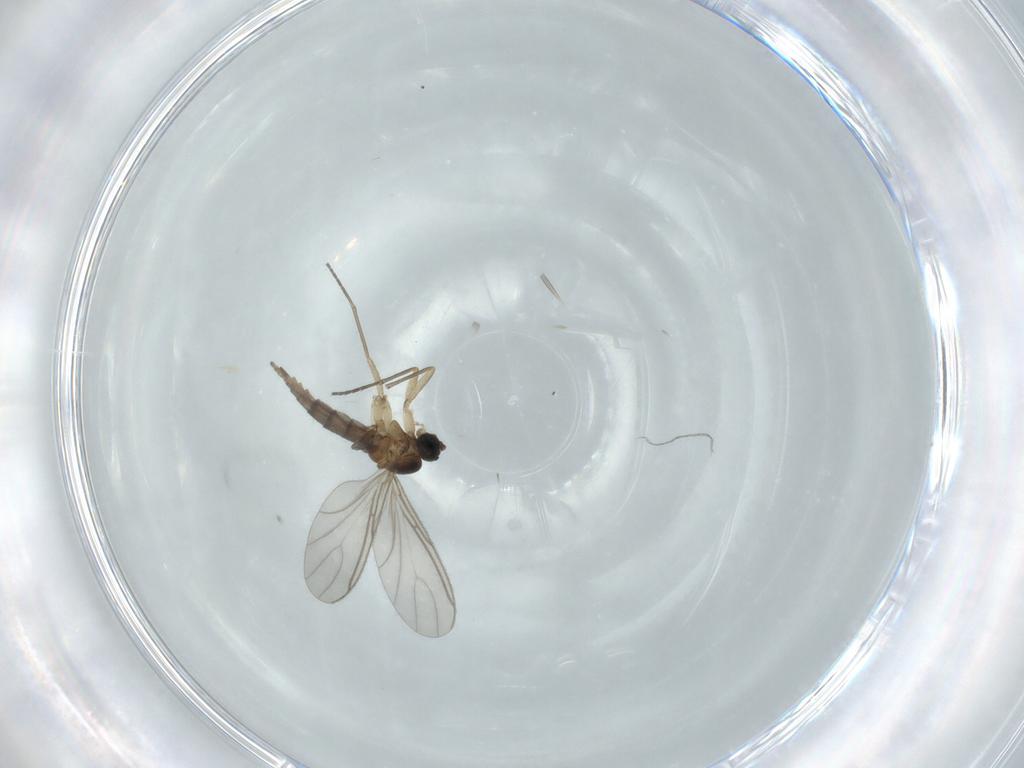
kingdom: Animalia
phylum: Arthropoda
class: Insecta
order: Diptera
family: Sciaridae
